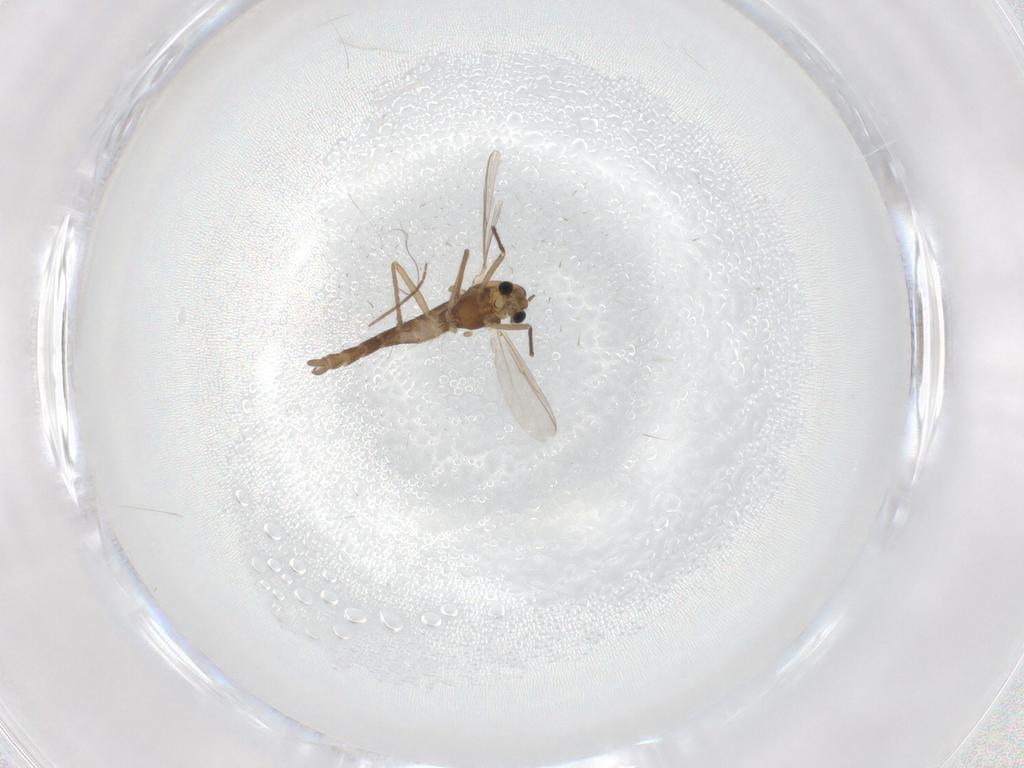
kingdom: Animalia
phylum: Arthropoda
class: Insecta
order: Diptera
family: Chironomidae
